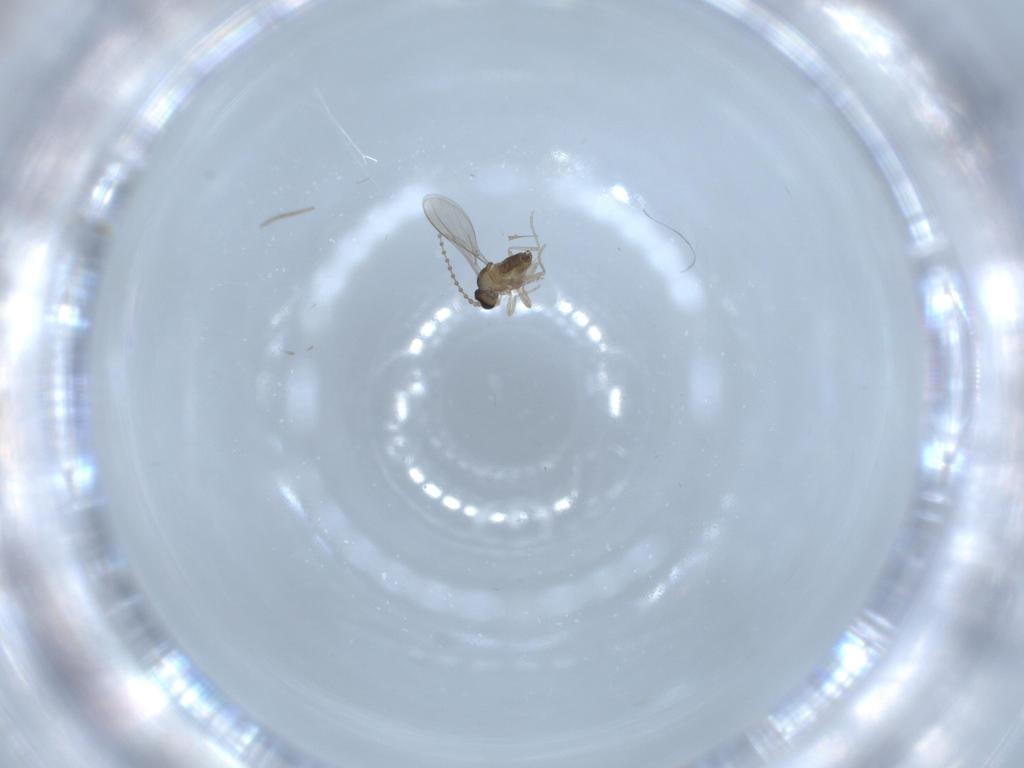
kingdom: Animalia
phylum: Arthropoda
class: Insecta
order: Diptera
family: Chironomidae
